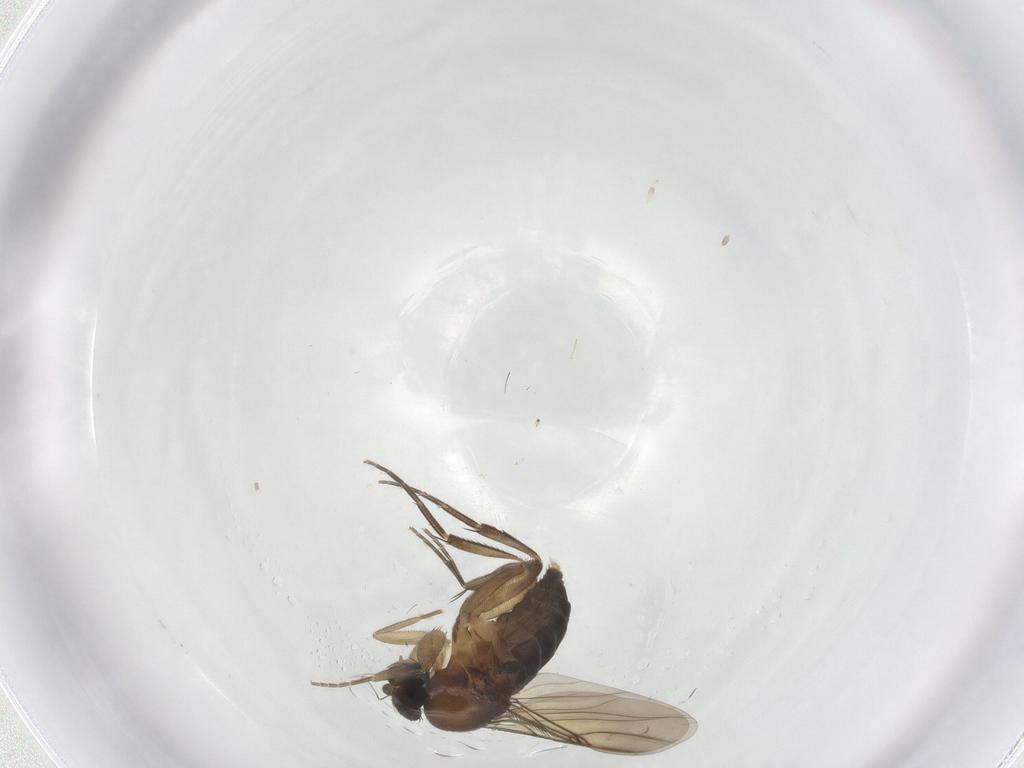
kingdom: Animalia
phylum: Arthropoda
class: Insecta
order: Diptera
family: Phoridae
